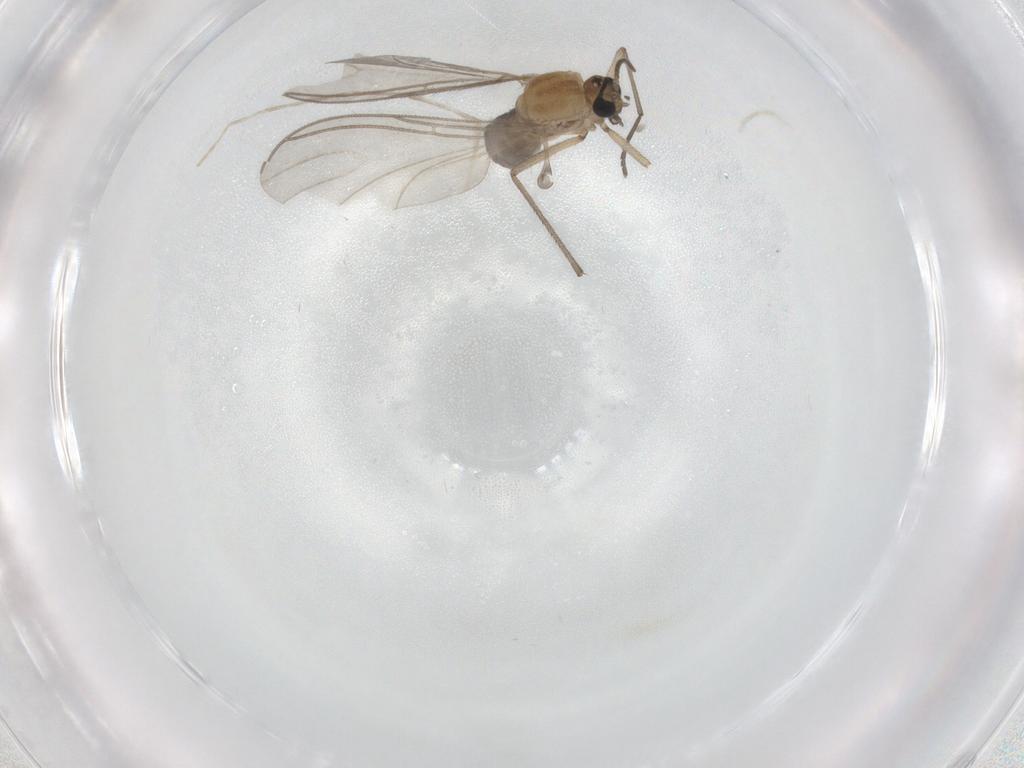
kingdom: Animalia
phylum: Arthropoda
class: Insecta
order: Diptera
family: Sciaridae
